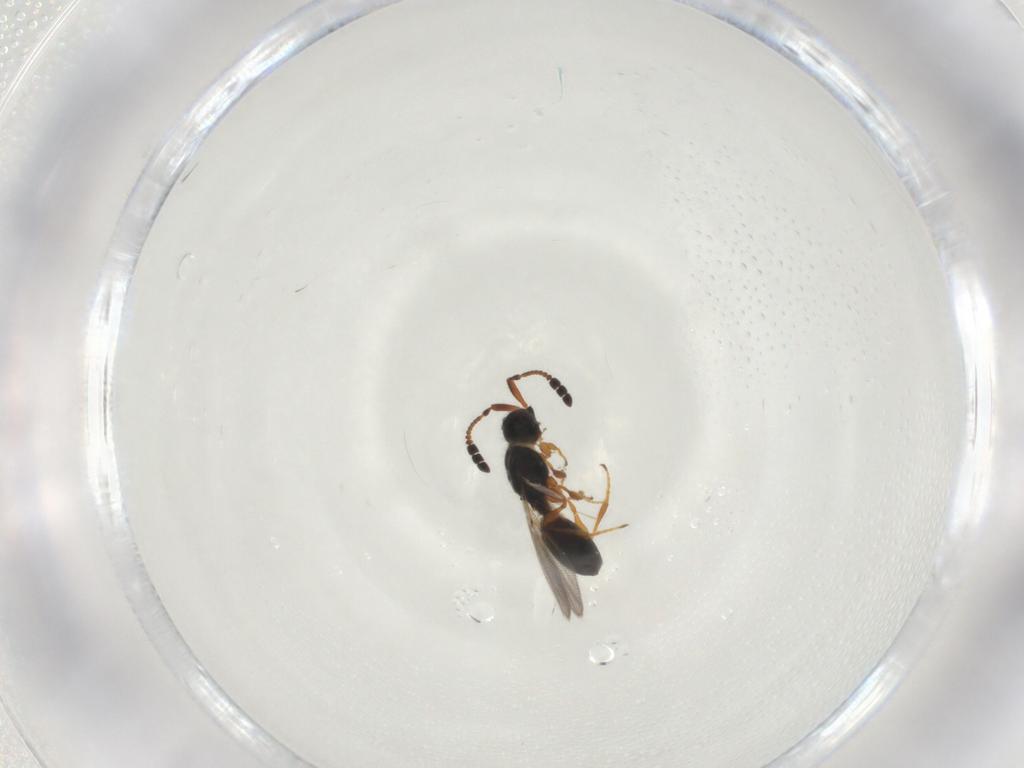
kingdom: Animalia
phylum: Arthropoda
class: Insecta
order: Hymenoptera
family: Diapriidae
